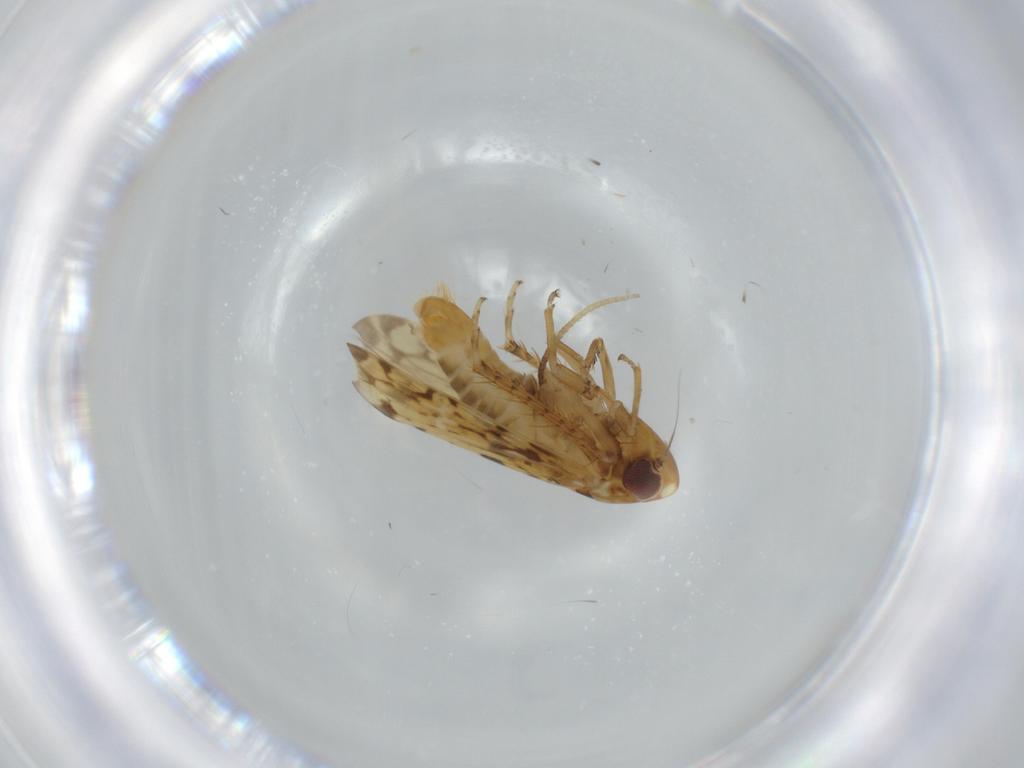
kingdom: Animalia
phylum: Arthropoda
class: Insecta
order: Hemiptera
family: Cicadellidae
